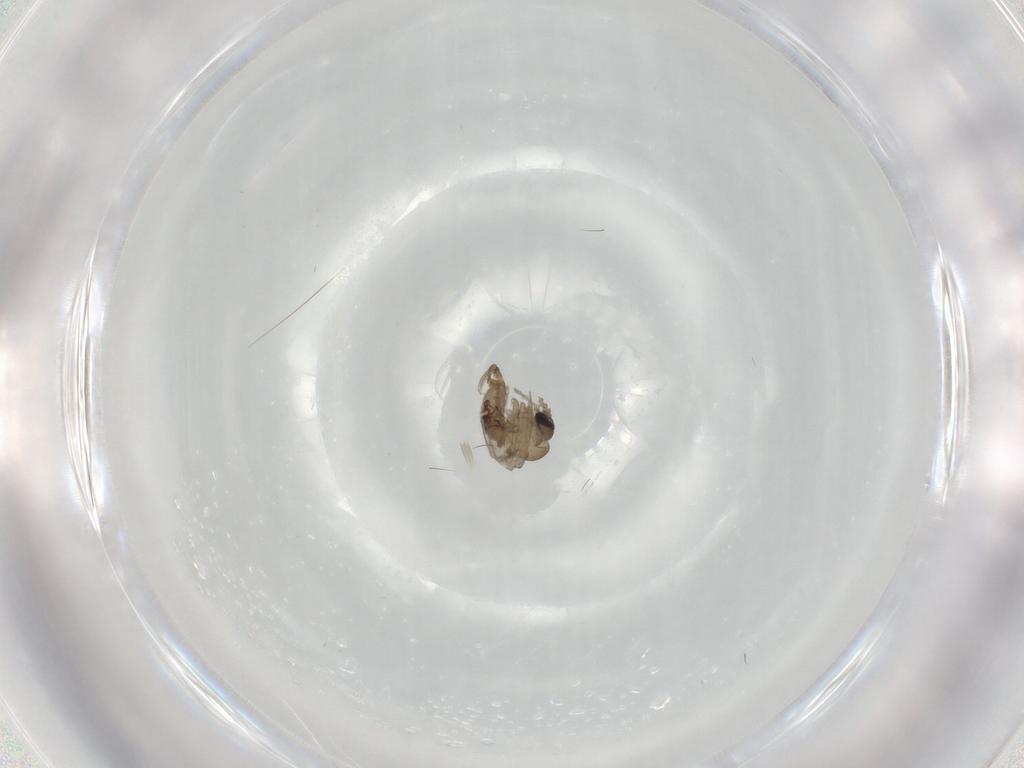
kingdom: Animalia
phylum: Arthropoda
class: Insecta
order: Diptera
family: Psychodidae
